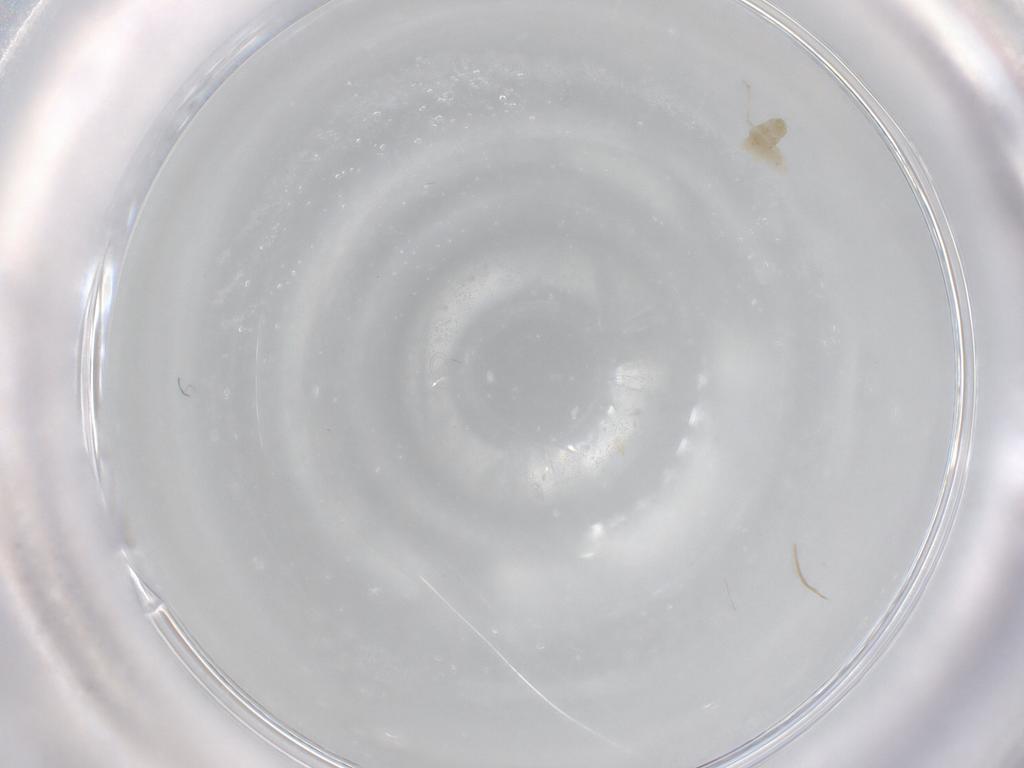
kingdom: Animalia
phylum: Arthropoda
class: Insecta
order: Diptera
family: Cecidomyiidae
